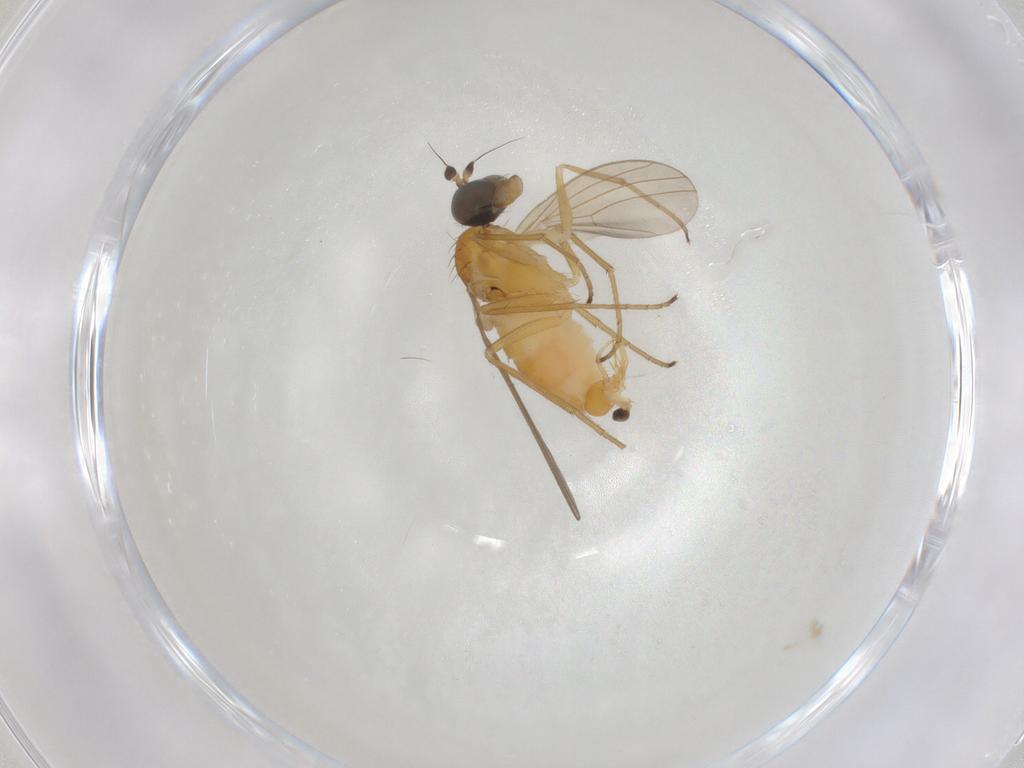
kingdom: Animalia
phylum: Arthropoda
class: Insecta
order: Diptera
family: Dolichopodidae
